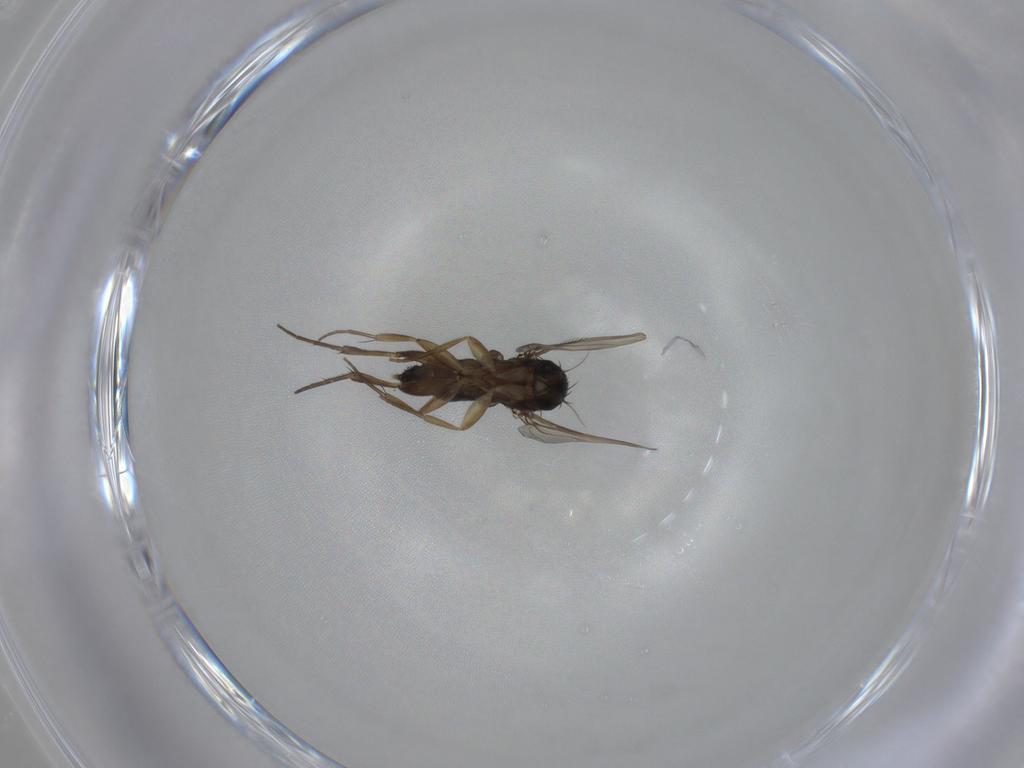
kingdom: Animalia
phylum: Arthropoda
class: Insecta
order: Diptera
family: Phoridae
